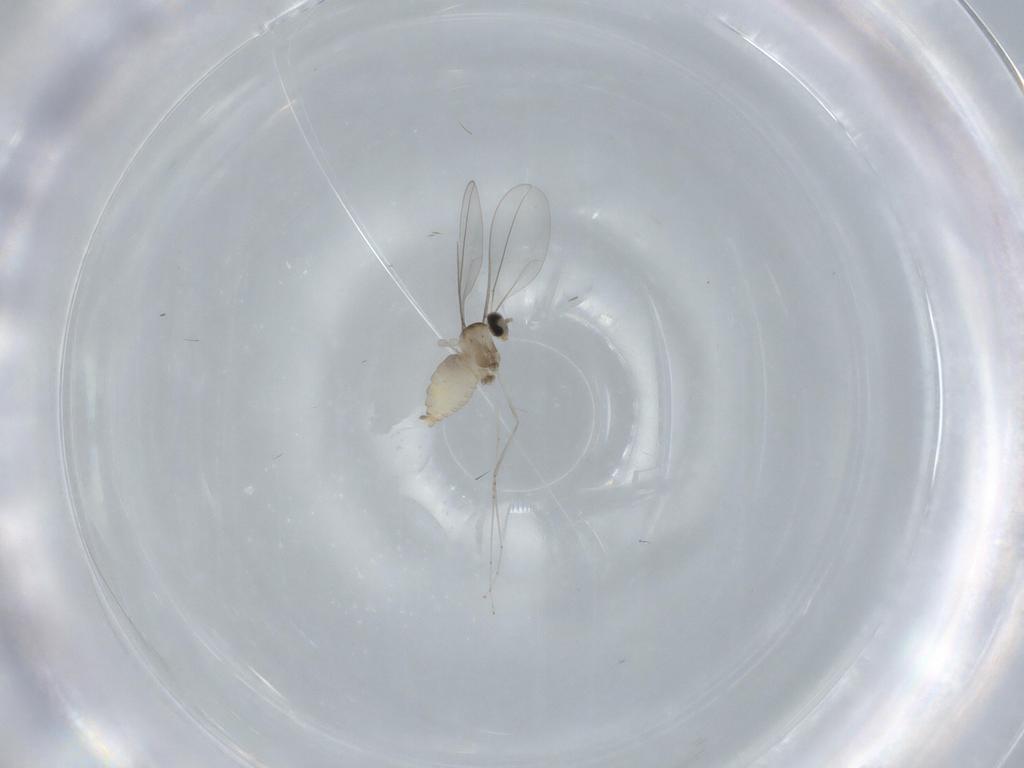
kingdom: Animalia
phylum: Arthropoda
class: Insecta
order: Diptera
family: Cecidomyiidae
